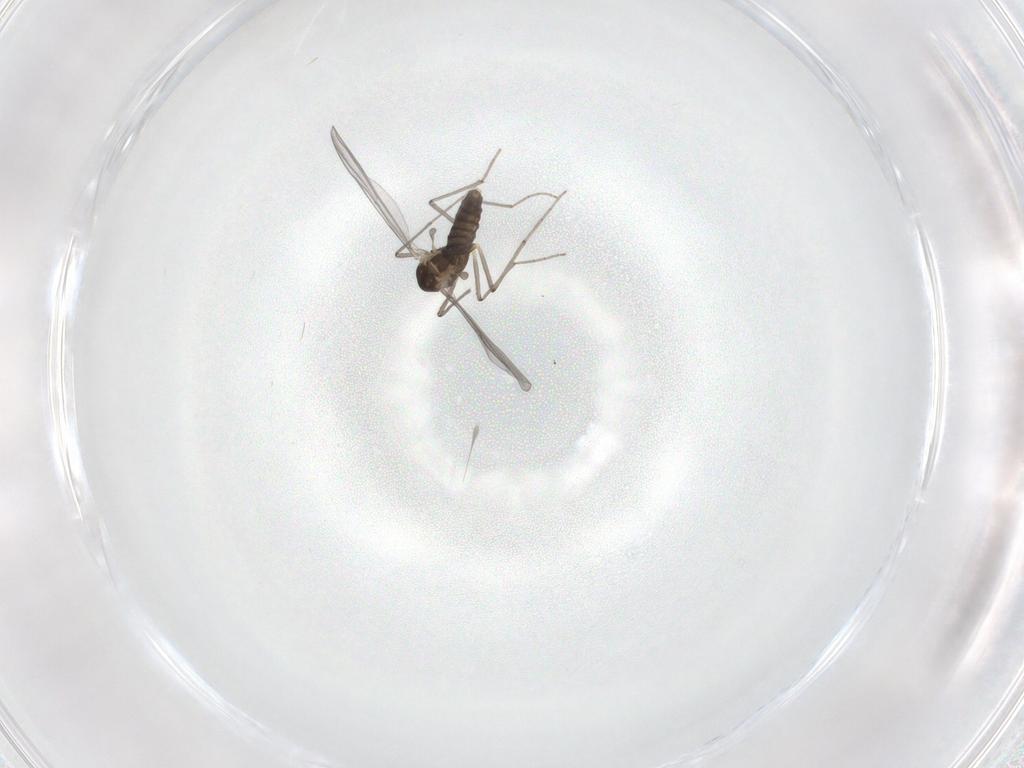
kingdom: Animalia
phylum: Arthropoda
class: Insecta
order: Diptera
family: Chironomidae
